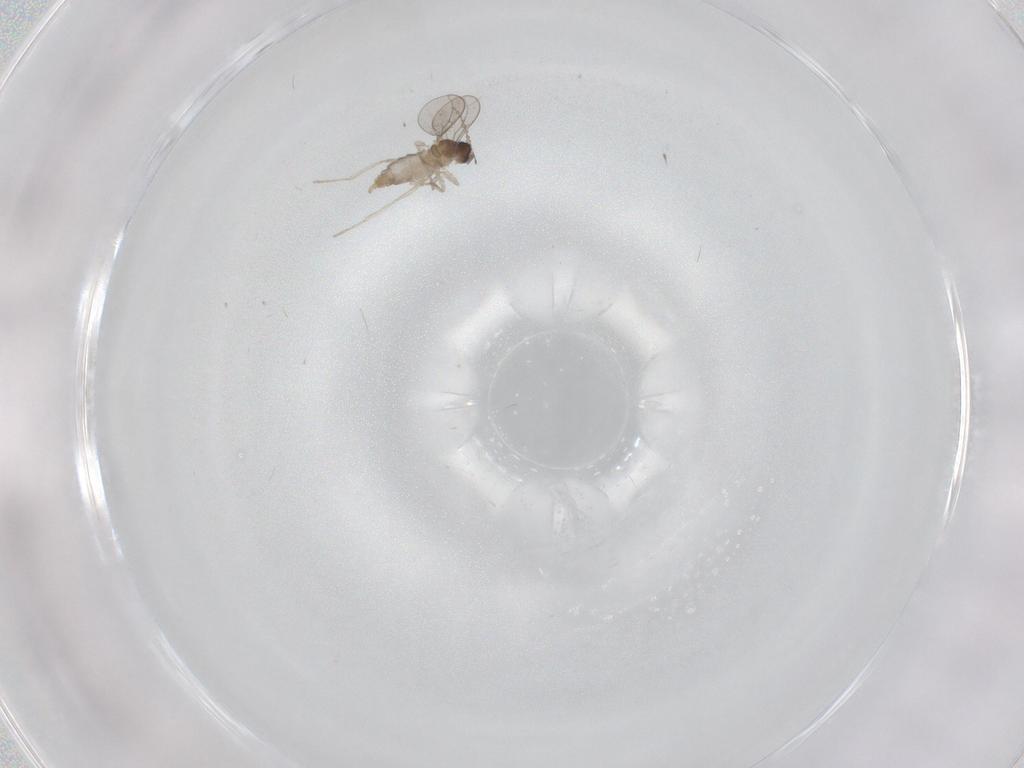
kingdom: Animalia
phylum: Arthropoda
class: Insecta
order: Diptera
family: Cecidomyiidae
